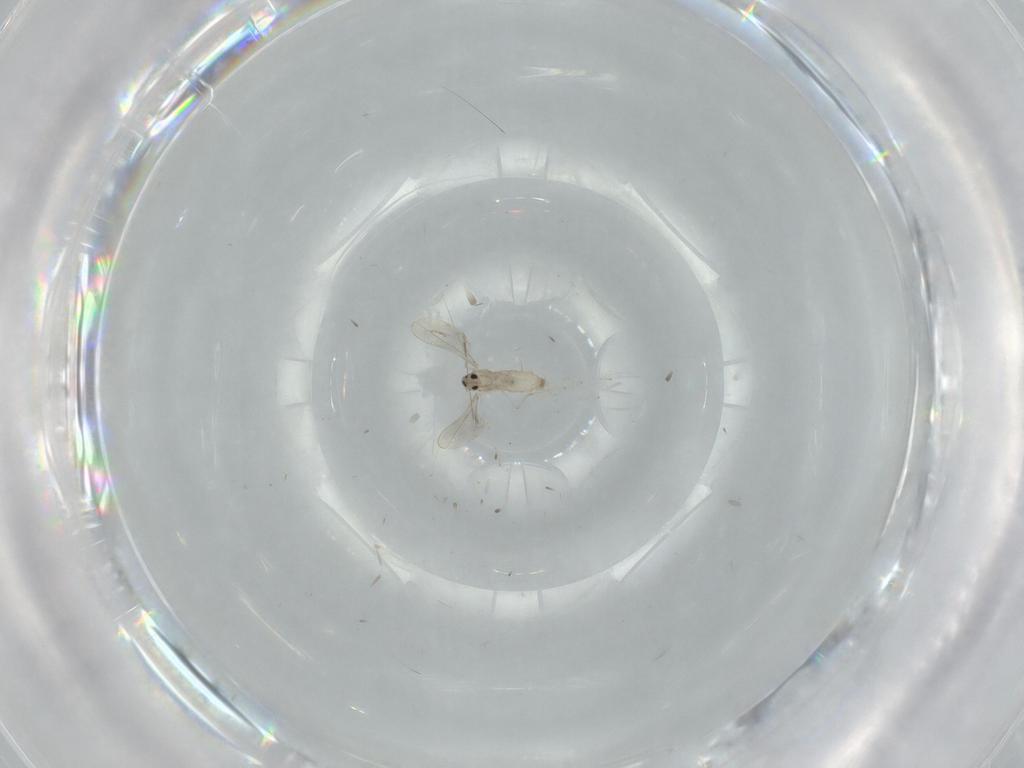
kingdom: Animalia
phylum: Arthropoda
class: Insecta
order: Diptera
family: Cecidomyiidae
